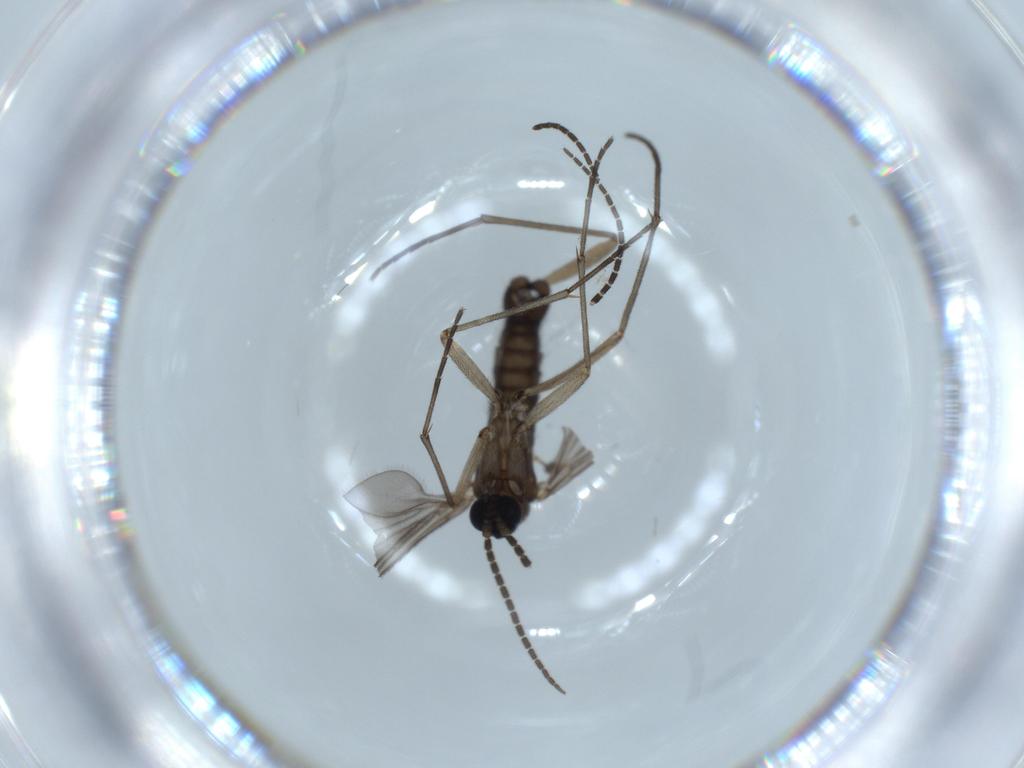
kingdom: Animalia
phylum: Arthropoda
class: Insecta
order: Diptera
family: Sciaridae
